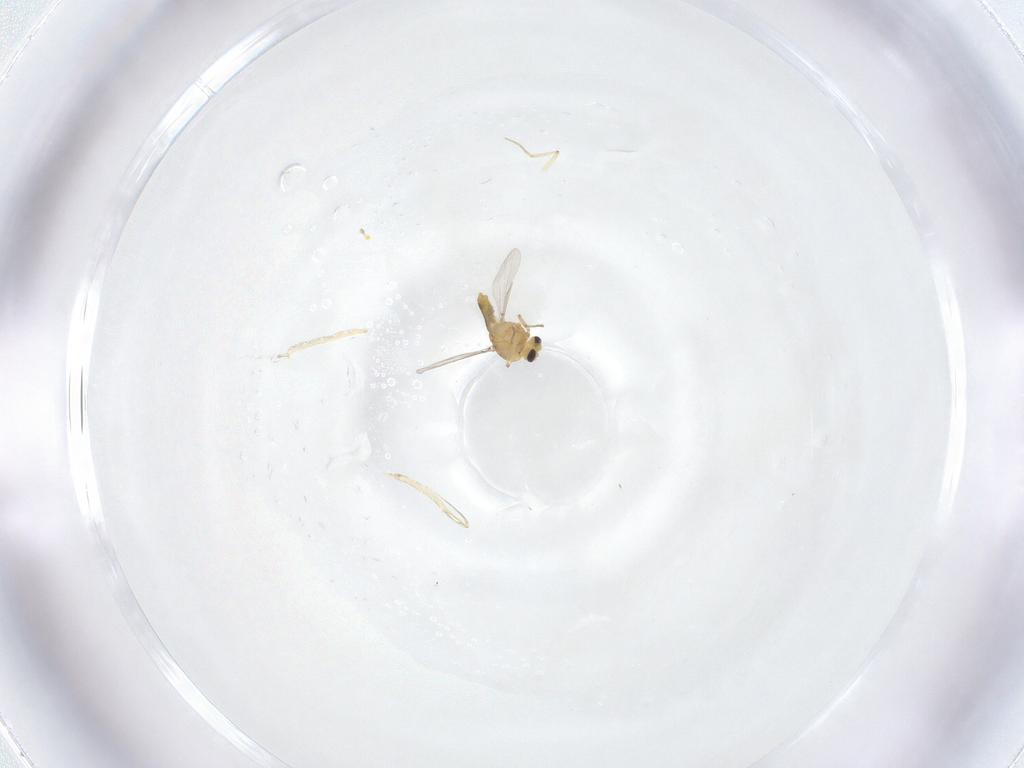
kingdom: Animalia
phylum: Arthropoda
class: Insecta
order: Diptera
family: Ceratopogonidae
